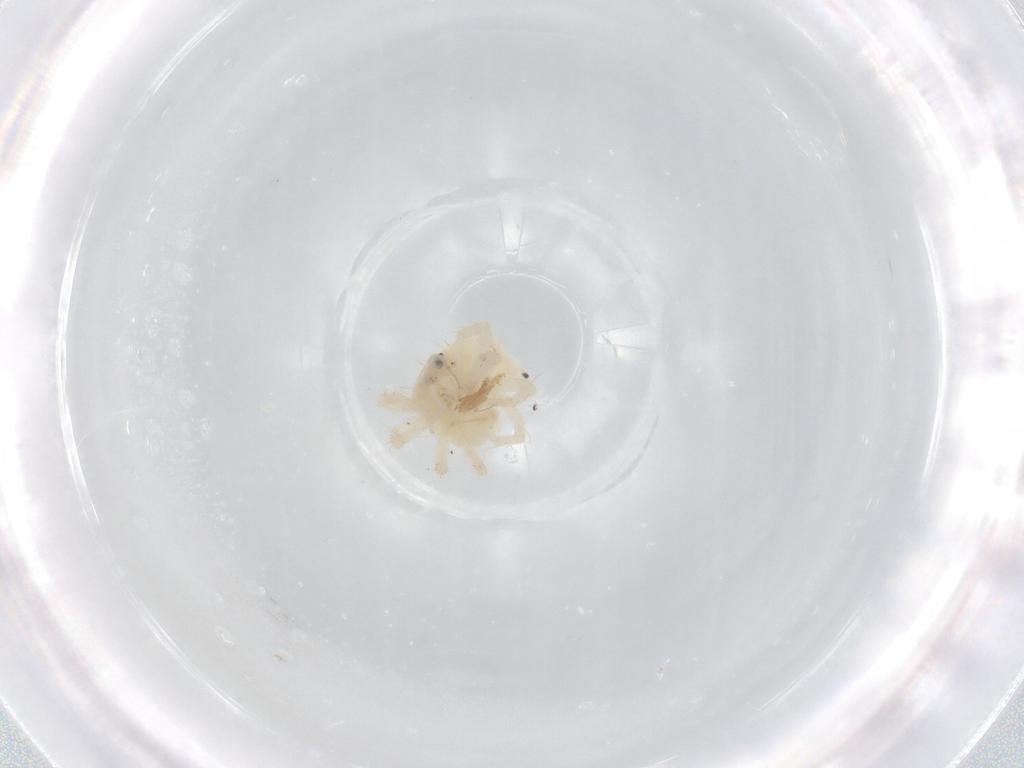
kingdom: Animalia
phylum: Arthropoda
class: Arachnida
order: Trombidiformes
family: Anystidae
